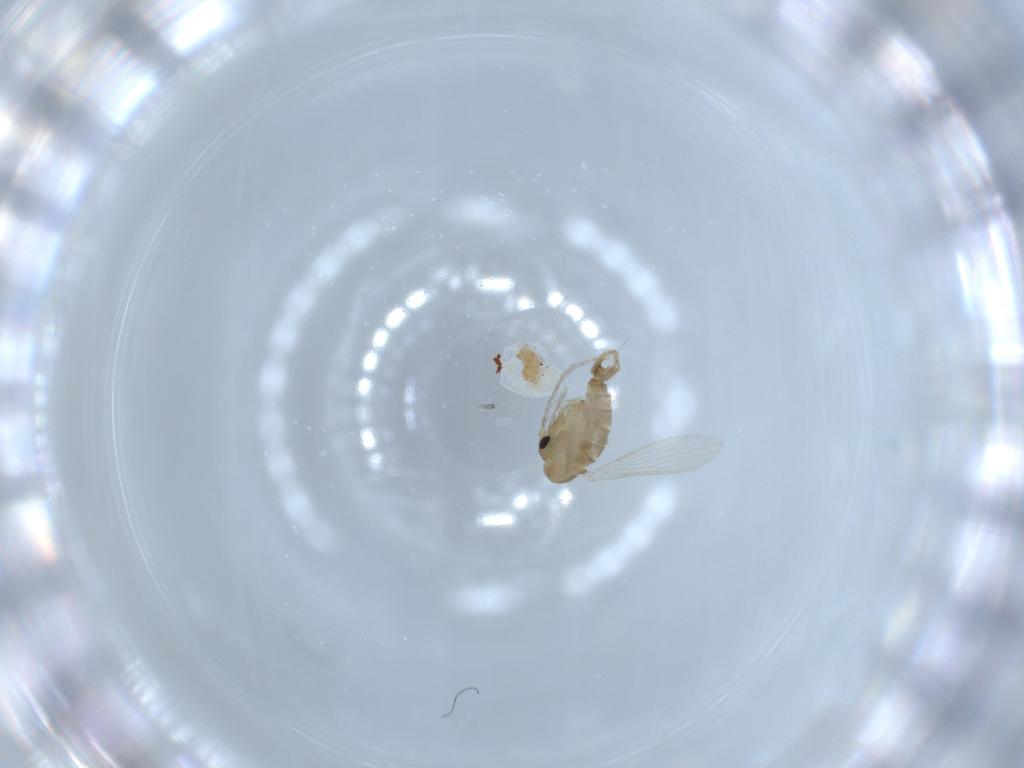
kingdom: Animalia
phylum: Arthropoda
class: Insecta
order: Diptera
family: Psychodidae
